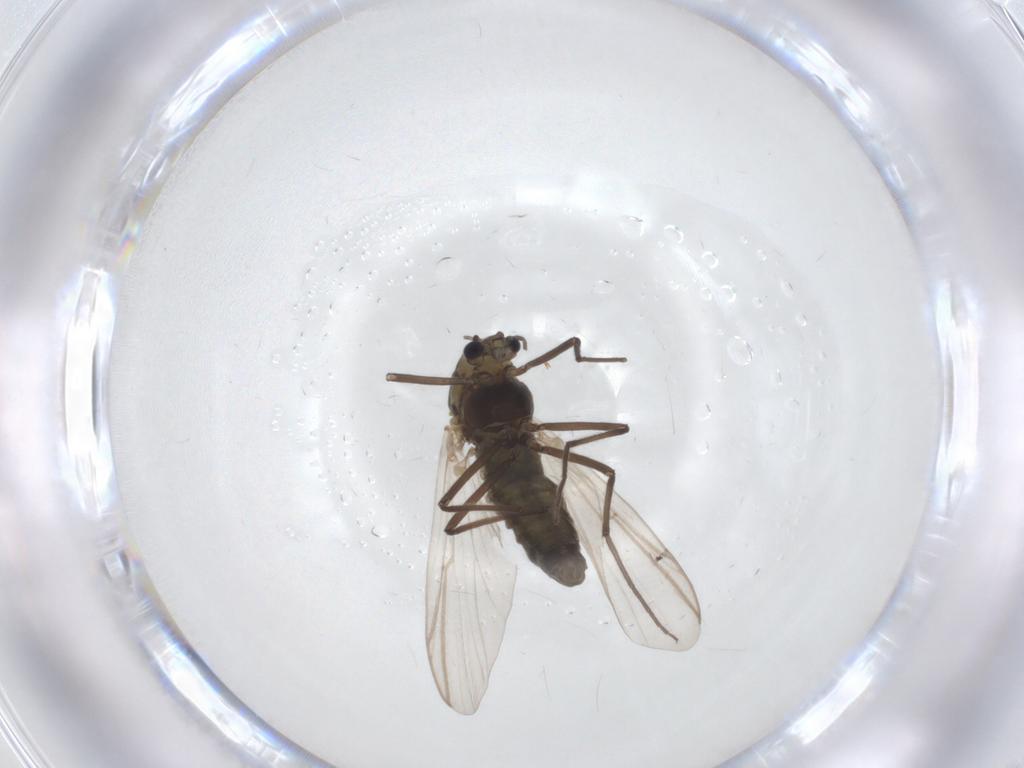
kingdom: Animalia
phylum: Arthropoda
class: Insecta
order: Diptera
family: Chironomidae
